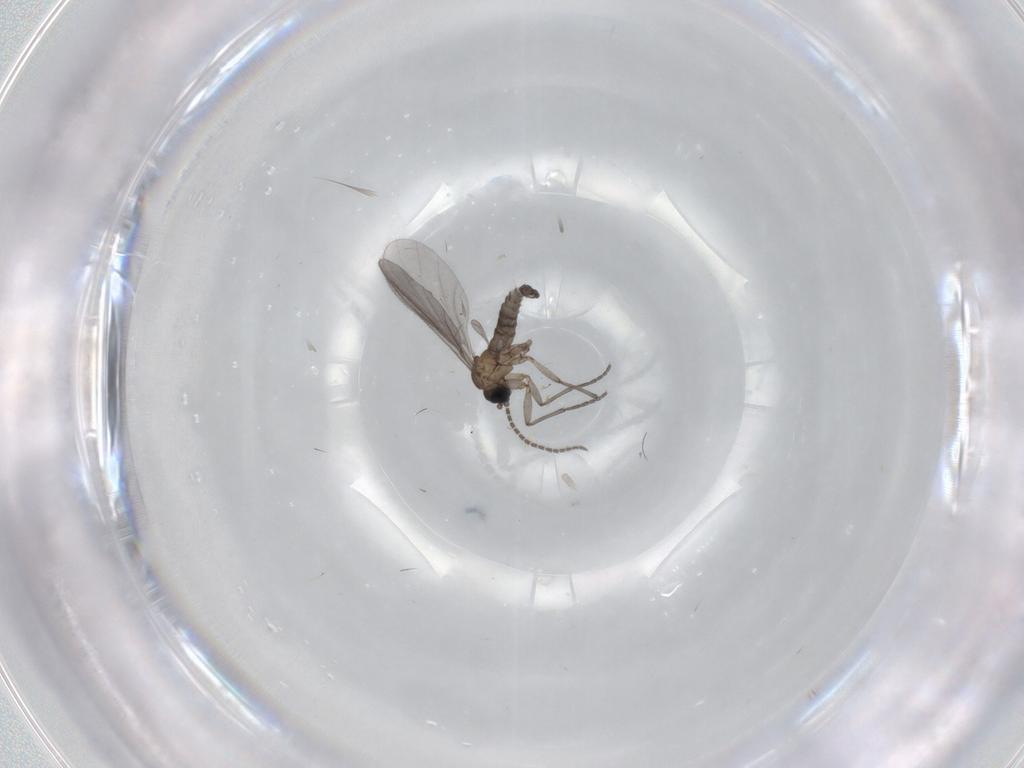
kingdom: Animalia
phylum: Arthropoda
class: Insecta
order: Diptera
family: Sciaridae
